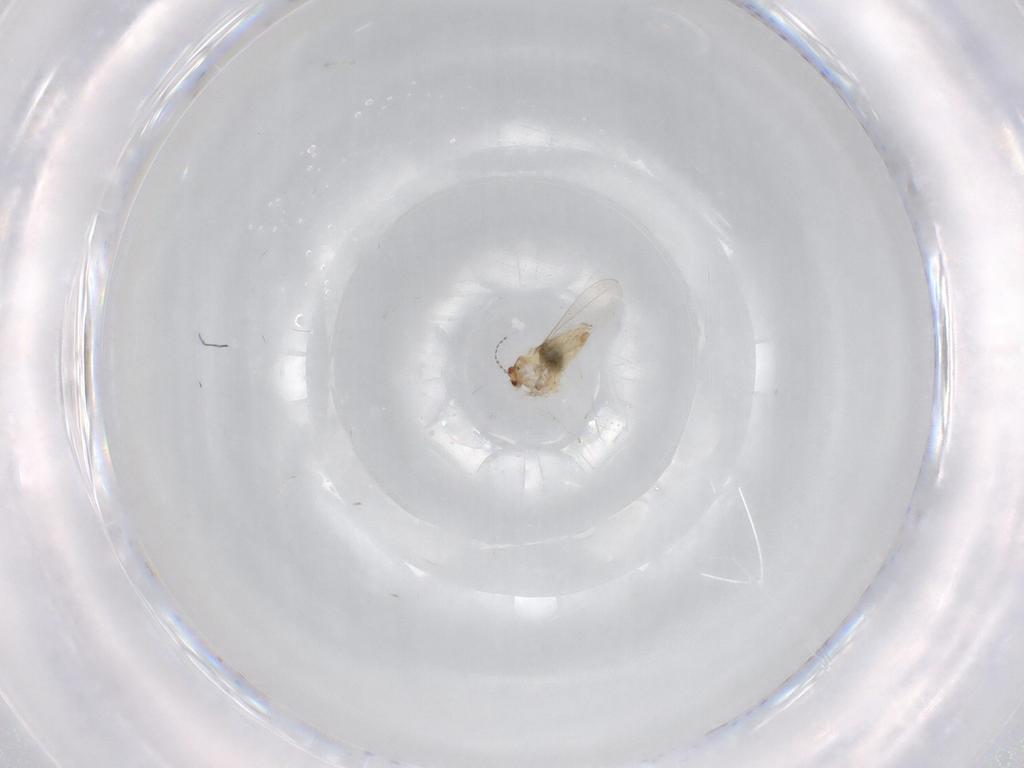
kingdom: Animalia
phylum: Arthropoda
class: Insecta
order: Diptera
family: Cecidomyiidae
